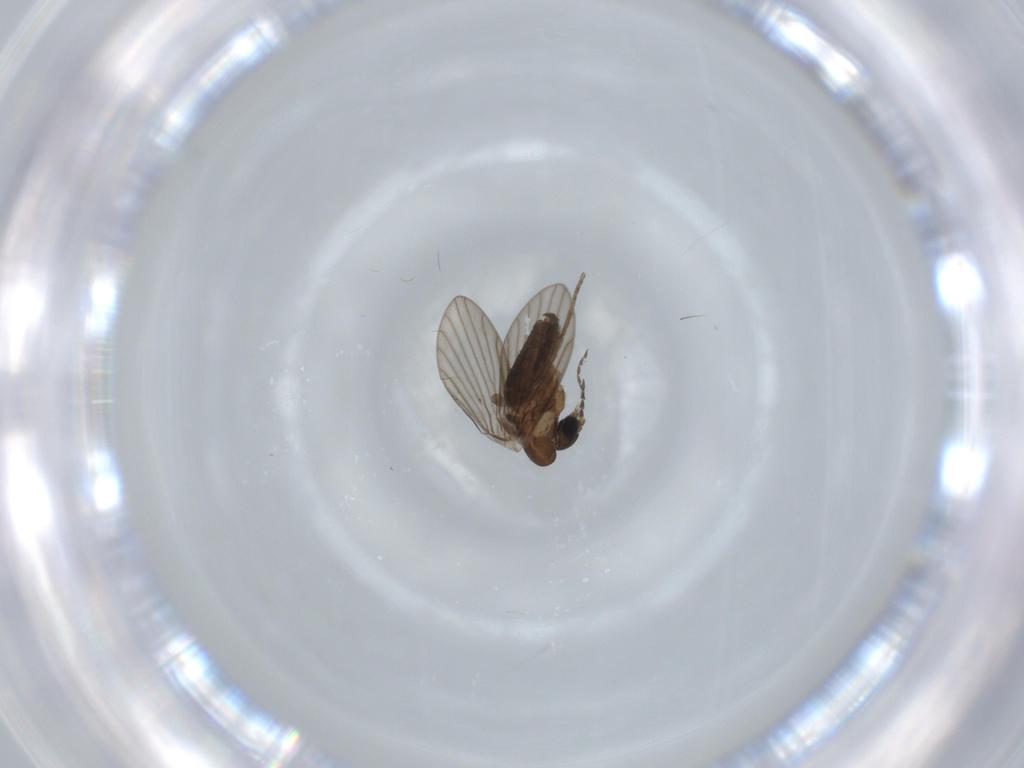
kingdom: Animalia
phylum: Arthropoda
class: Insecta
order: Diptera
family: Psychodidae
